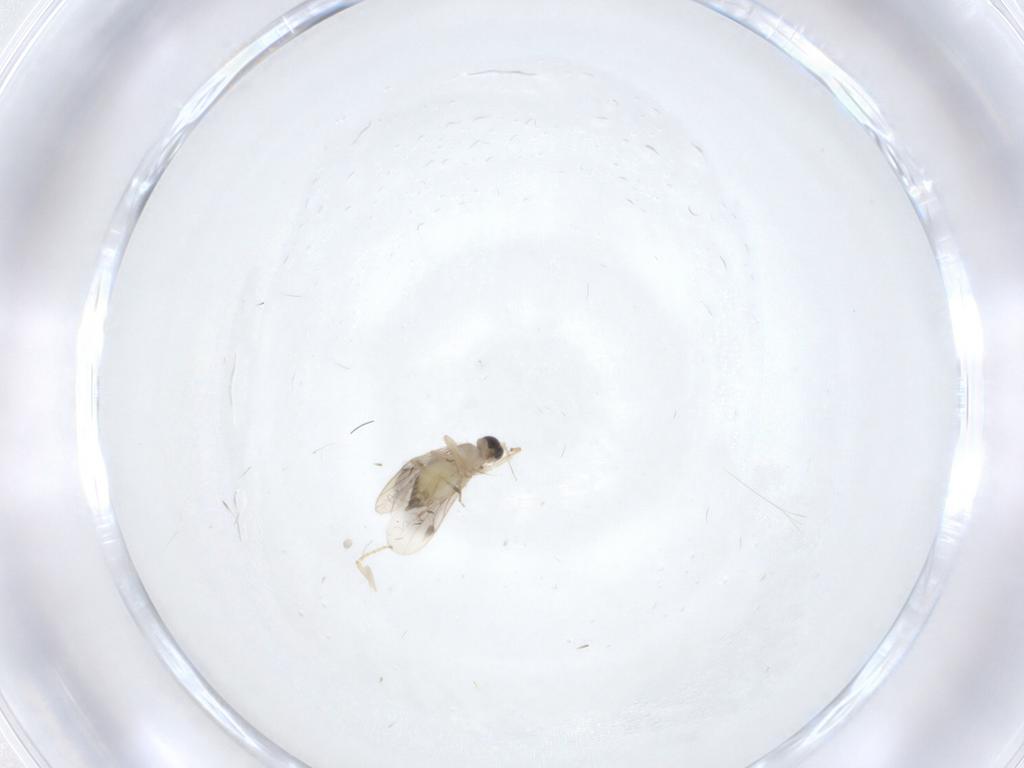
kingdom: Animalia
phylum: Arthropoda
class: Insecta
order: Diptera
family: Hybotidae
